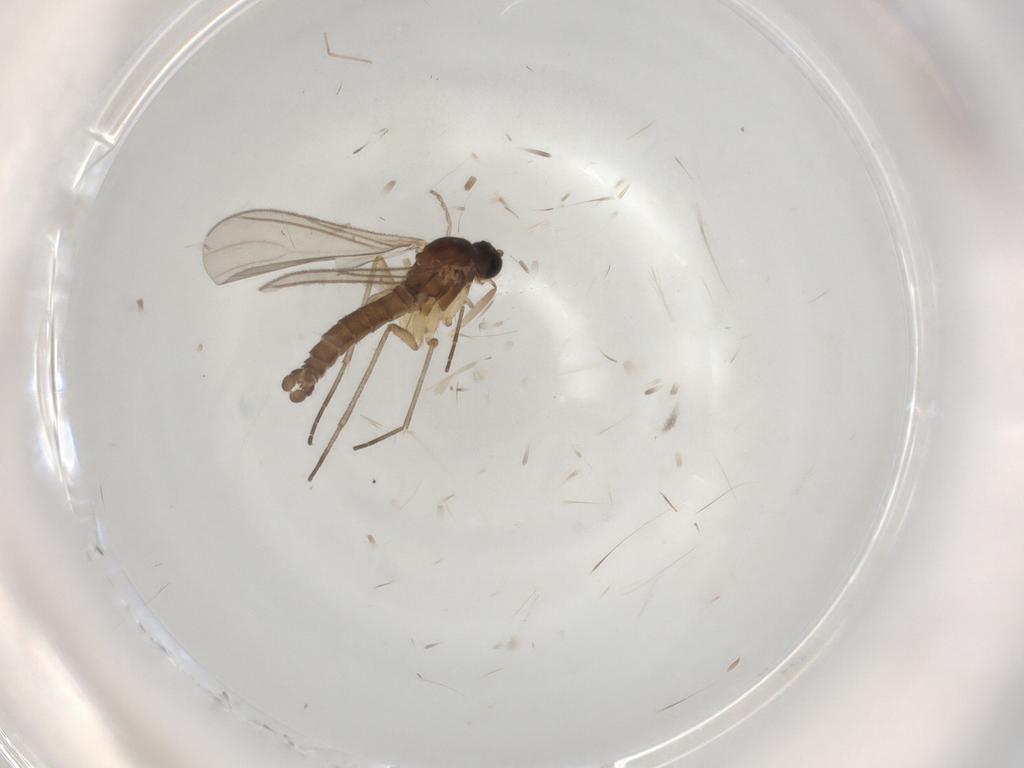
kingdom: Animalia
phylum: Arthropoda
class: Insecta
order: Diptera
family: Sciaridae
